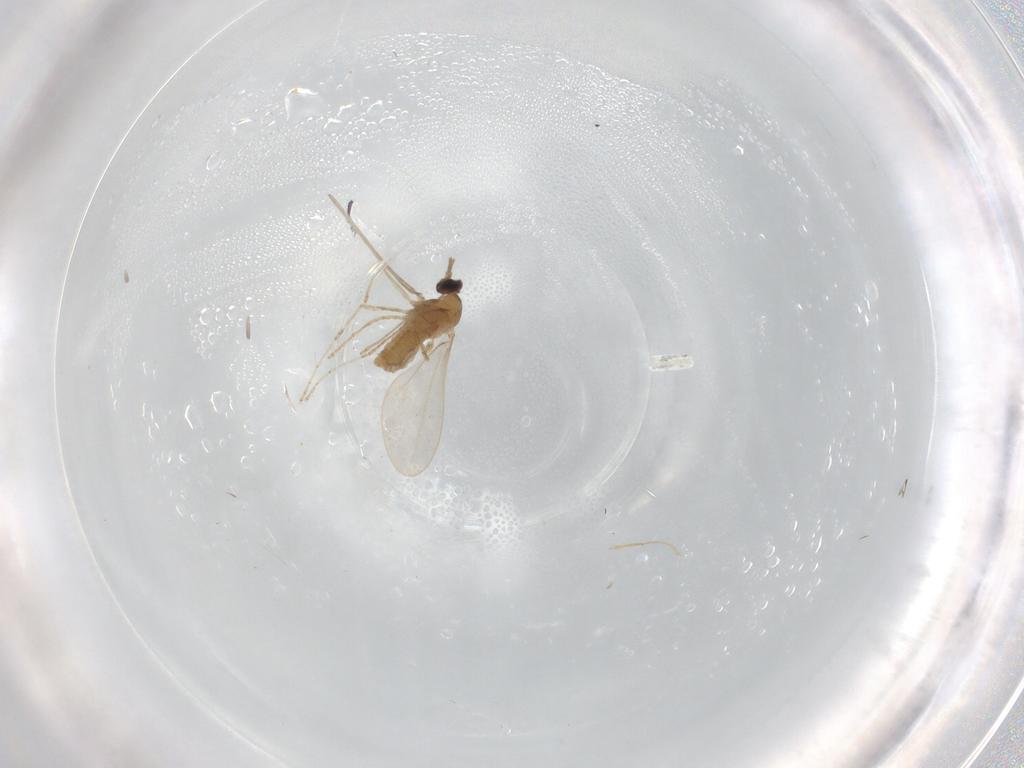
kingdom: Animalia
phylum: Arthropoda
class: Insecta
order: Diptera
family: Cecidomyiidae
